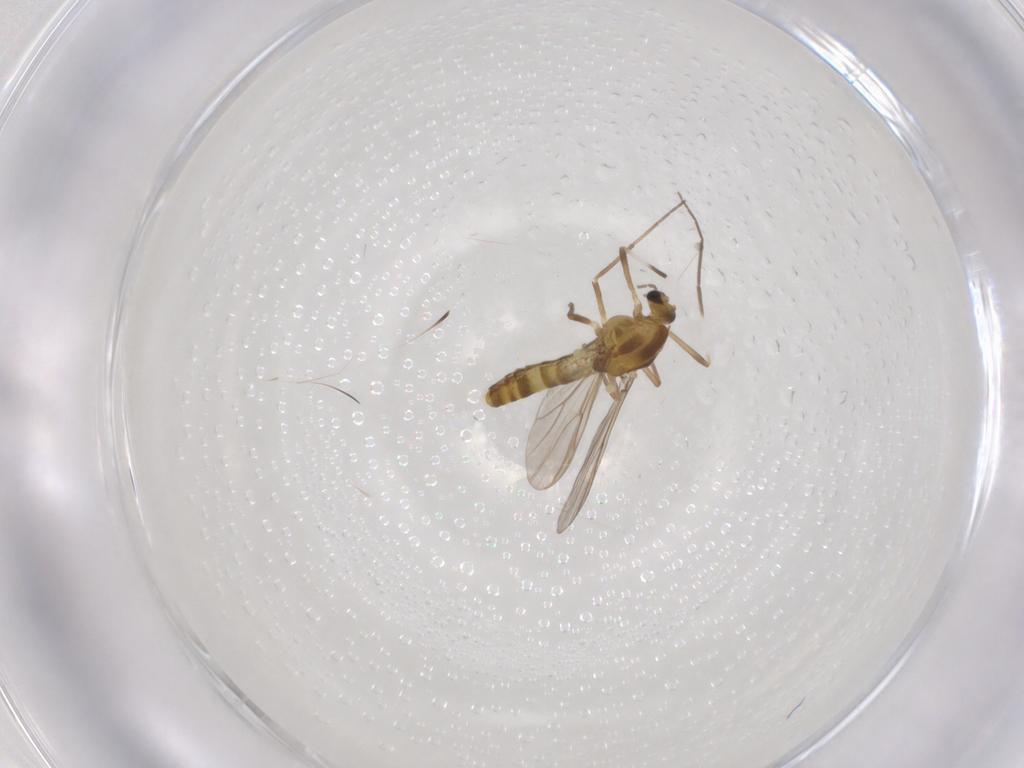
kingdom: Animalia
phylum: Arthropoda
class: Insecta
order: Diptera
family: Chironomidae
